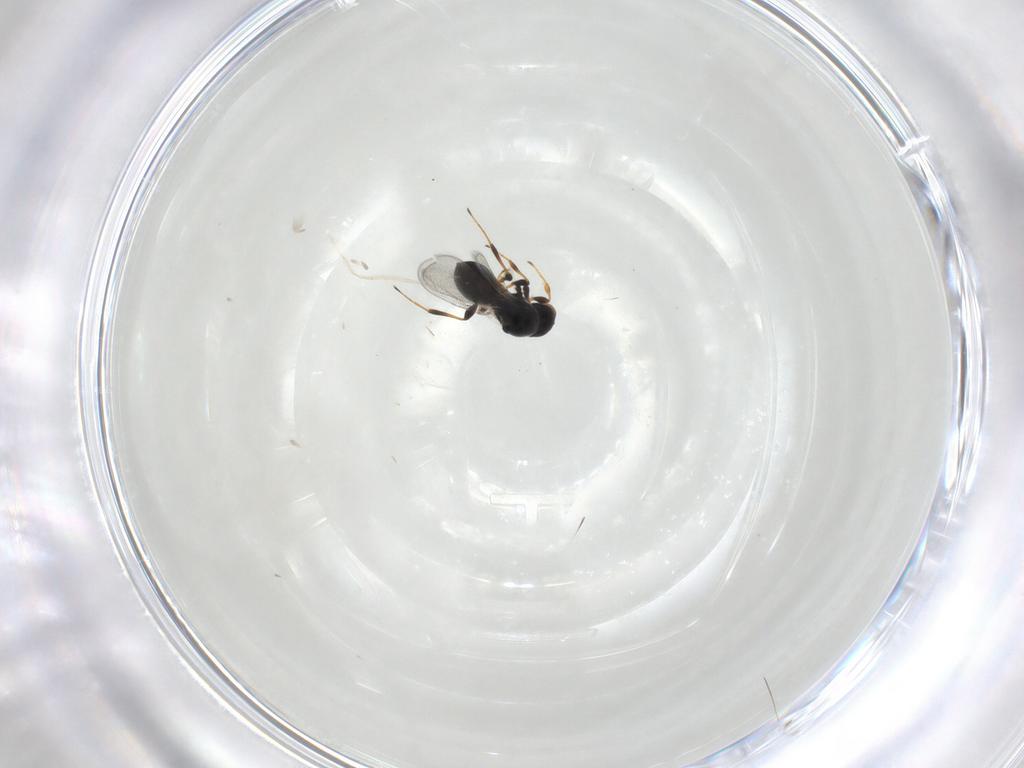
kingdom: Animalia
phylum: Arthropoda
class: Insecta
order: Hymenoptera
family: Platygastridae
